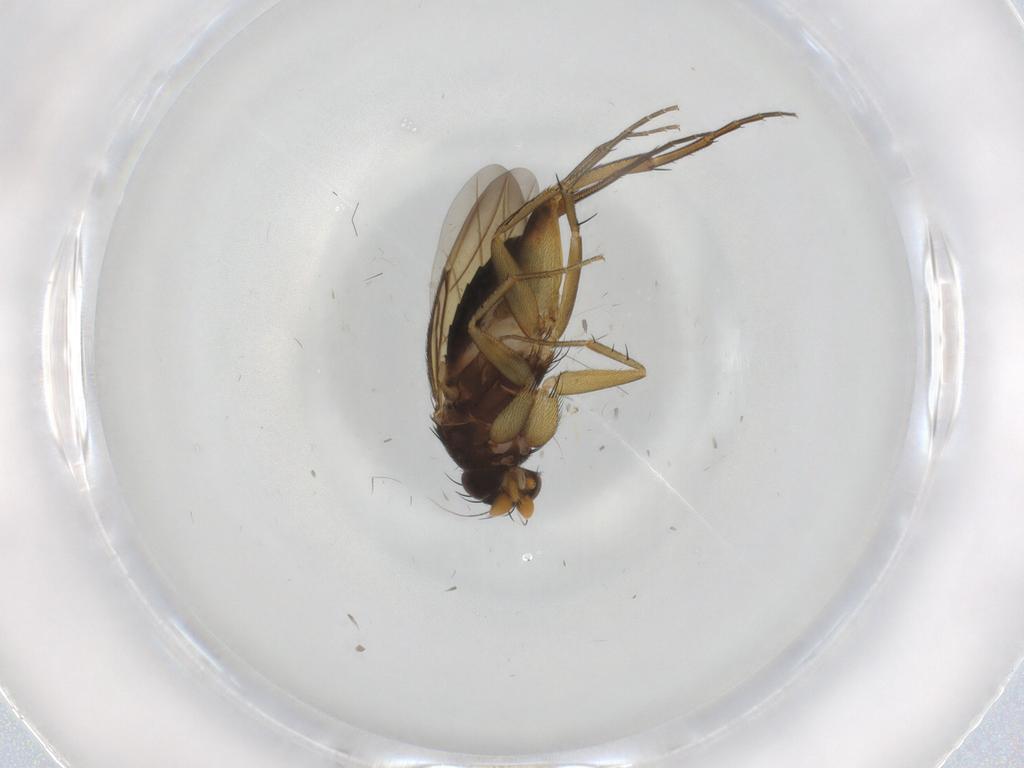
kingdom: Animalia
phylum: Arthropoda
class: Insecta
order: Diptera
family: Phoridae
